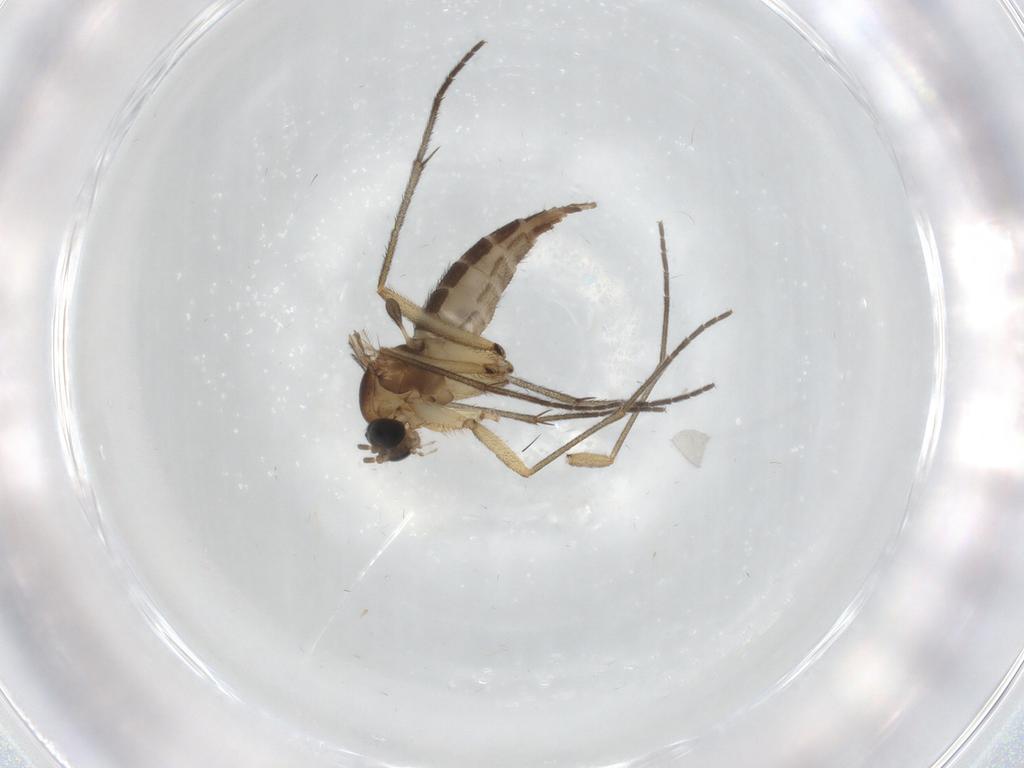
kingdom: Animalia
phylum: Arthropoda
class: Insecta
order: Diptera
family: Sciaridae
